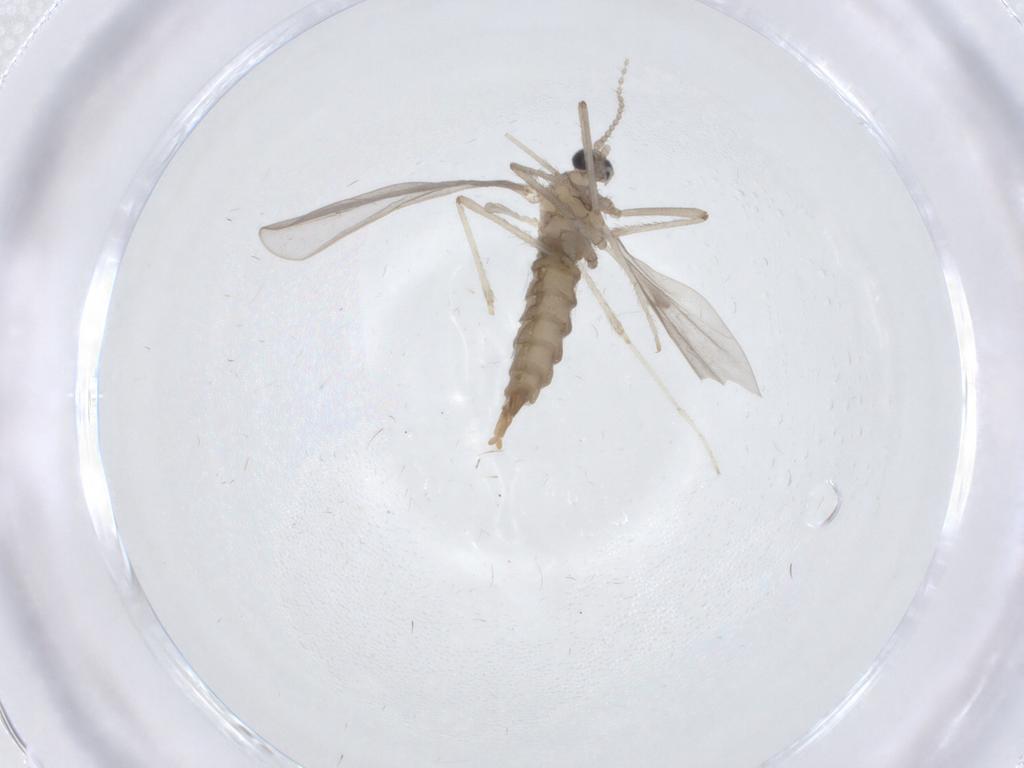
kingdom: Animalia
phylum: Arthropoda
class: Insecta
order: Diptera
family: Cecidomyiidae
